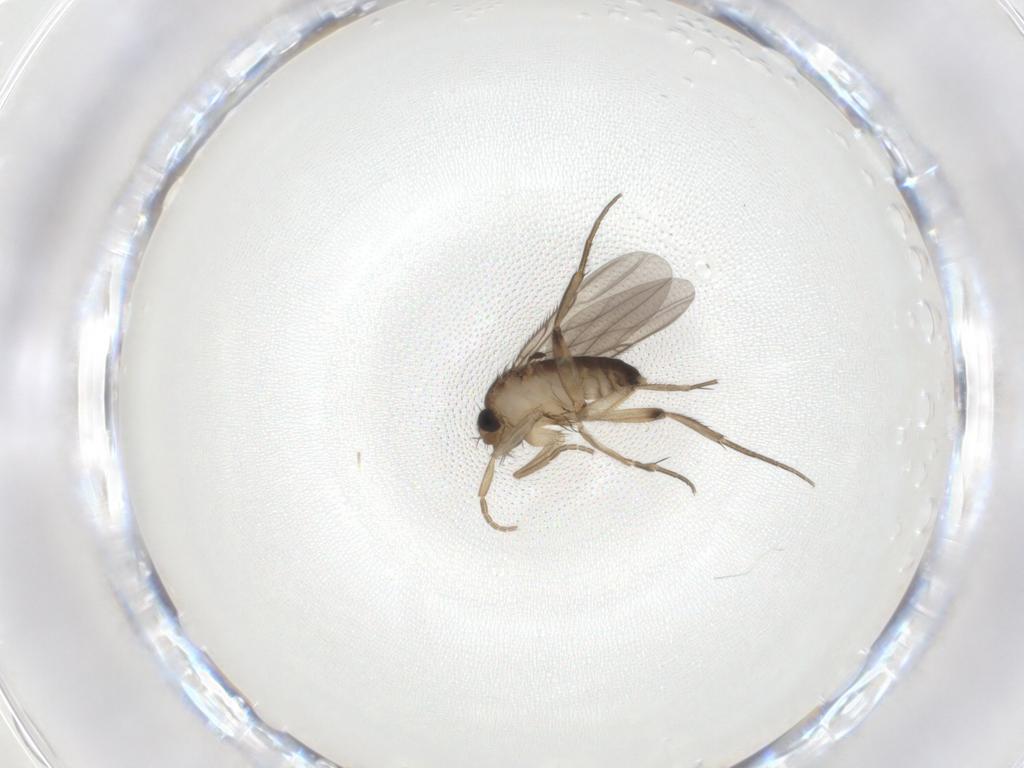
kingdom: Animalia
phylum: Arthropoda
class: Insecta
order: Diptera
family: Phoridae
